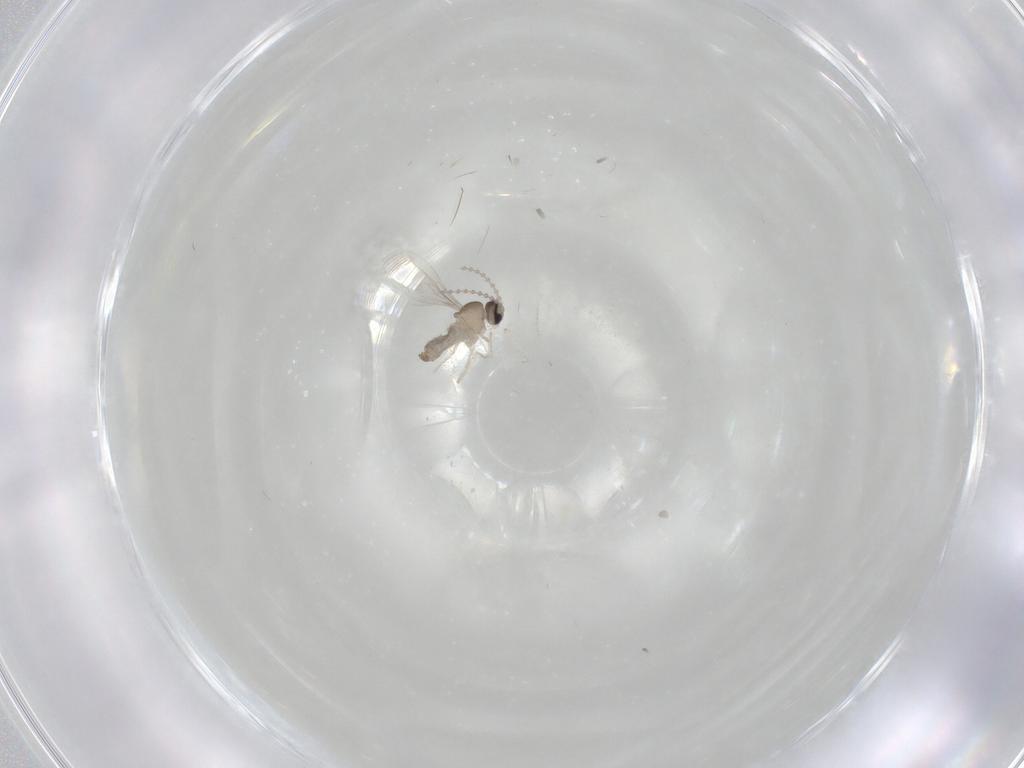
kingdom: Animalia
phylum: Arthropoda
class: Insecta
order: Diptera
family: Cecidomyiidae
